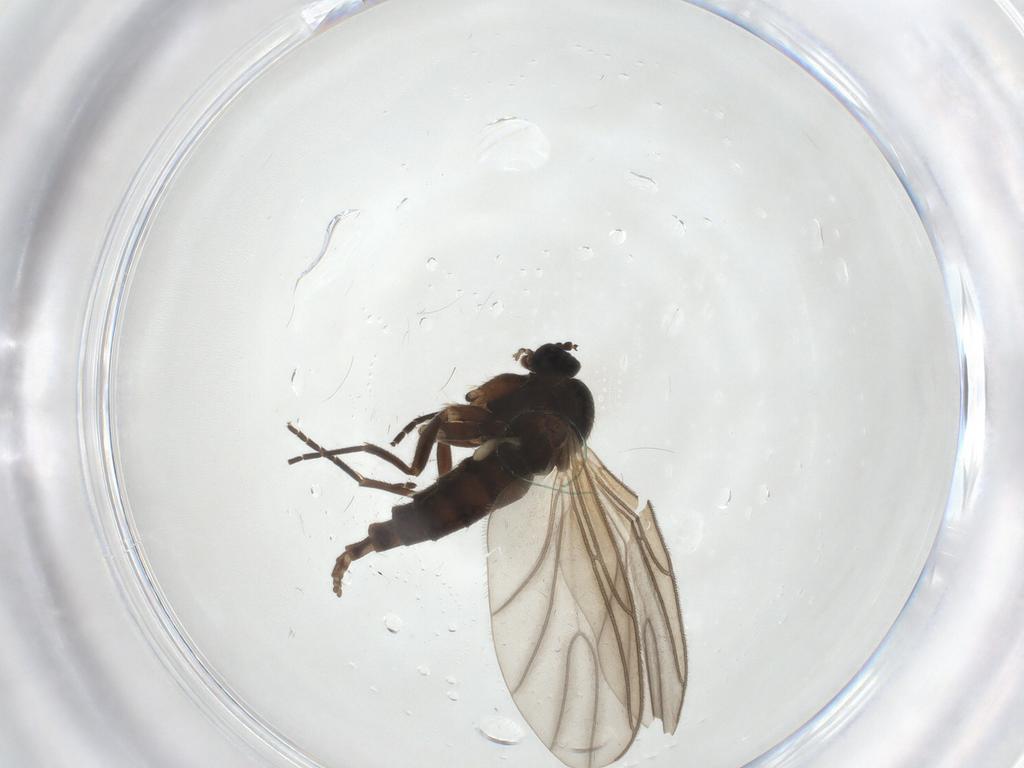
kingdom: Animalia
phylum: Arthropoda
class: Insecta
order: Diptera
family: Sciaridae
